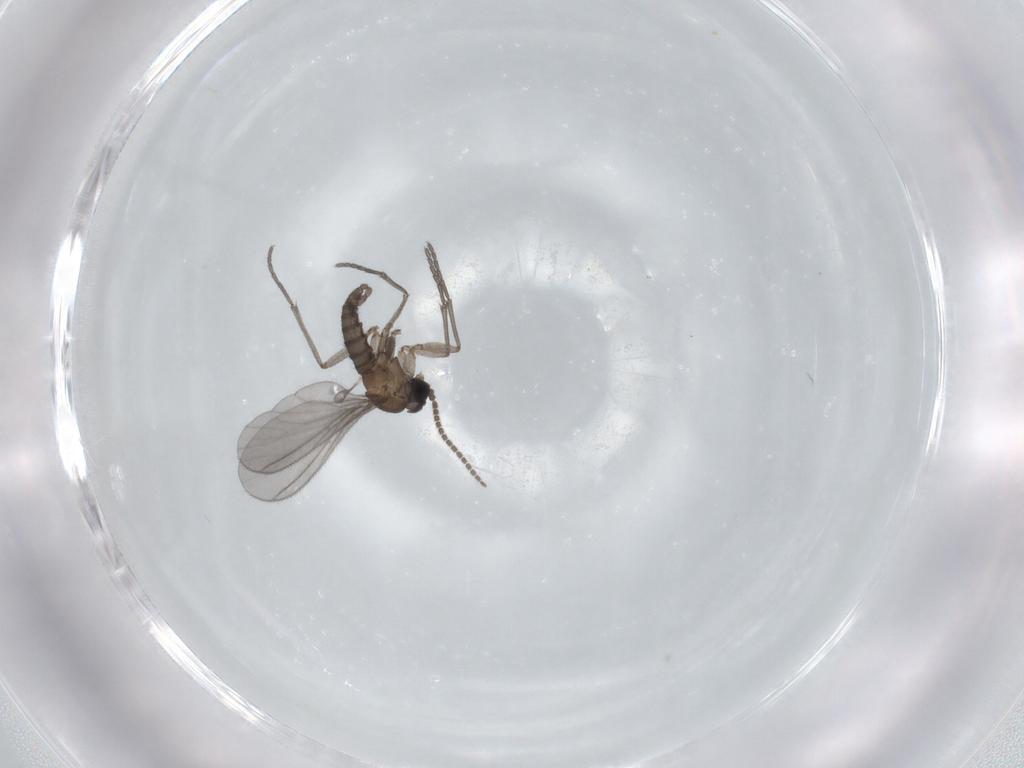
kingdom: Animalia
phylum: Arthropoda
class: Insecta
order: Diptera
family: Sciaridae
